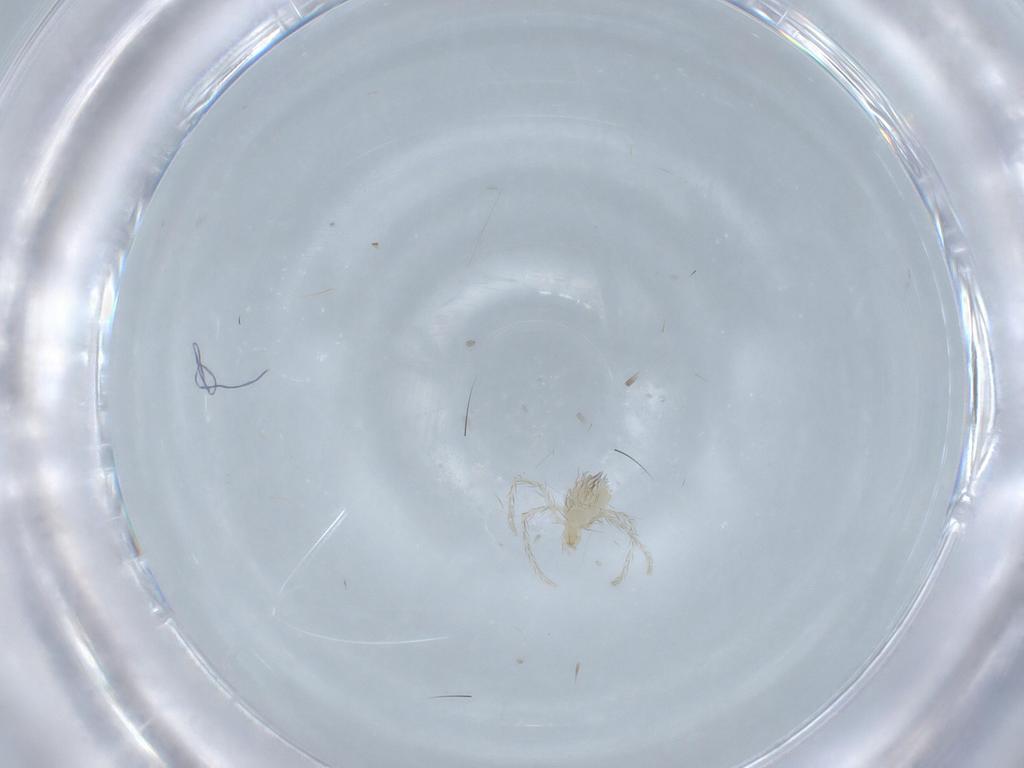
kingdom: Animalia
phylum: Arthropoda
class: Arachnida
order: Trombidiformes
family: Erythraeidae
